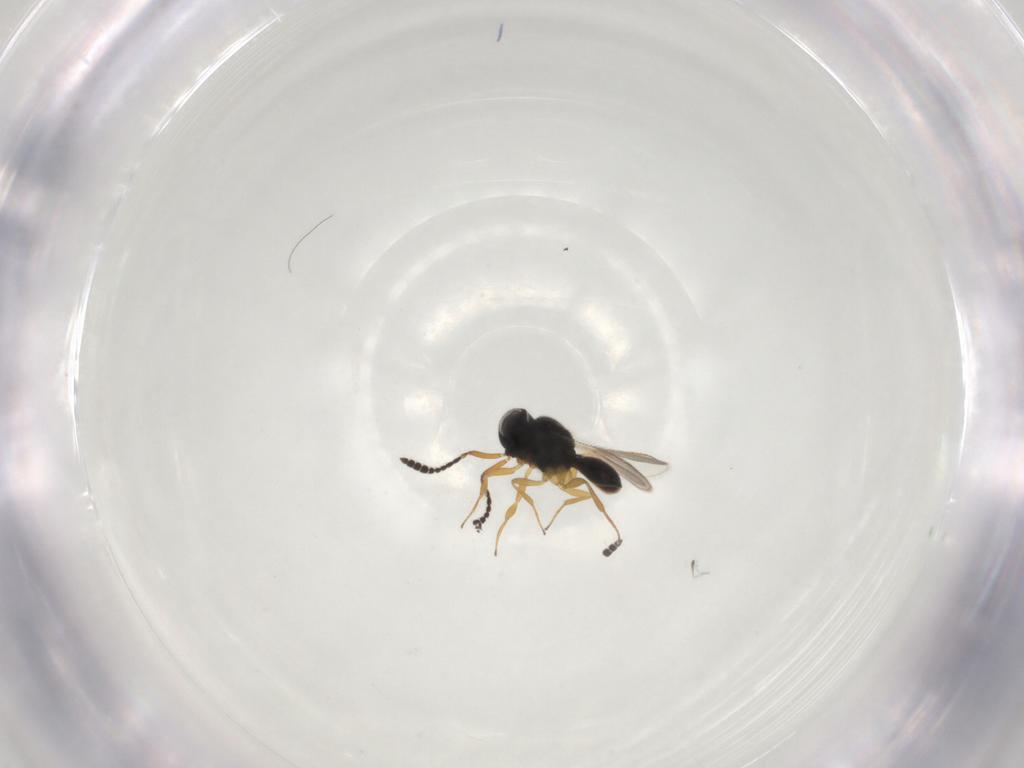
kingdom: Animalia
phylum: Arthropoda
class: Insecta
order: Hymenoptera
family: Scelionidae
